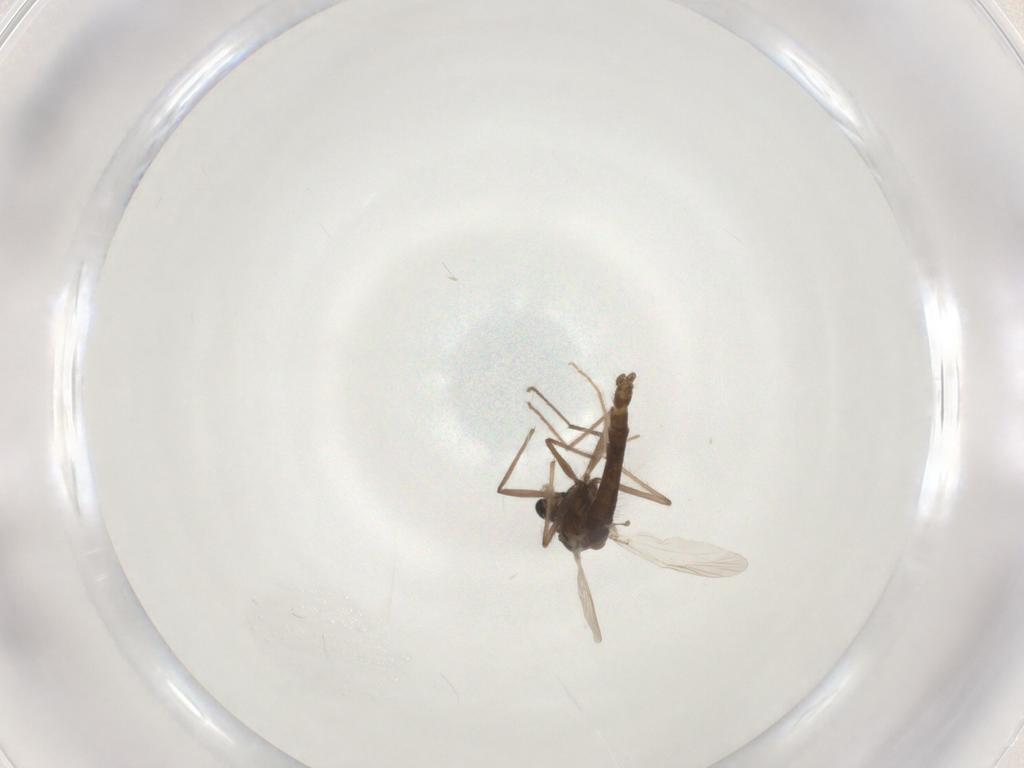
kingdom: Animalia
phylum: Arthropoda
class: Insecta
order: Diptera
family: Chironomidae
